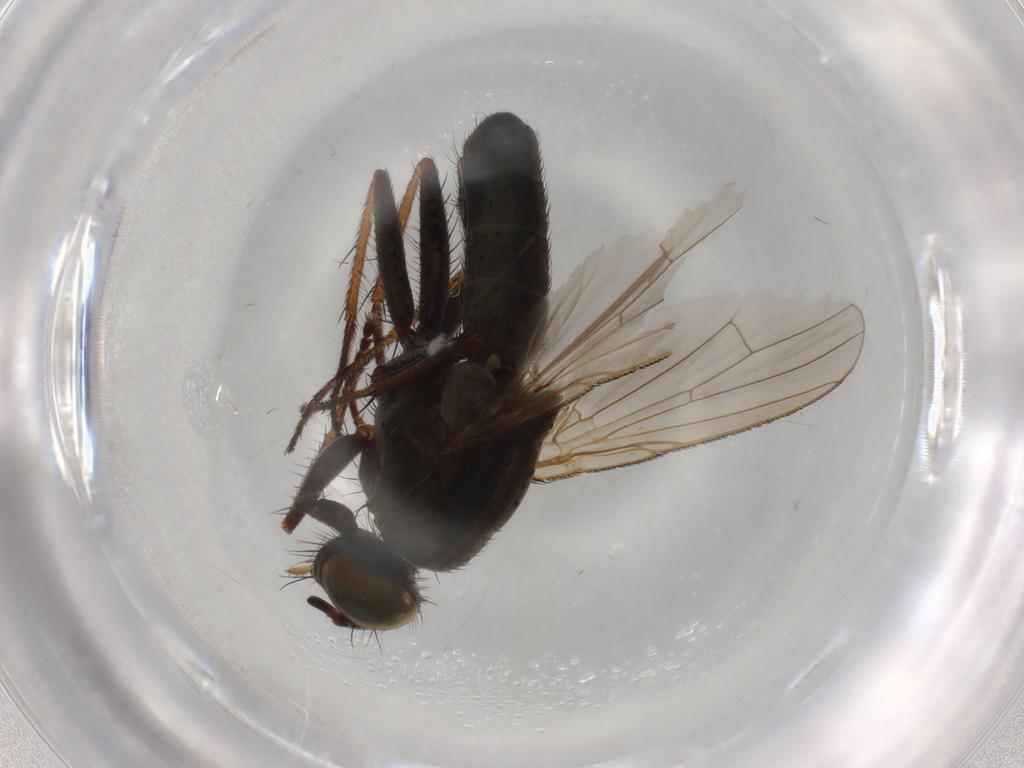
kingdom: Animalia
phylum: Arthropoda
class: Insecta
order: Diptera
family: Muscidae
